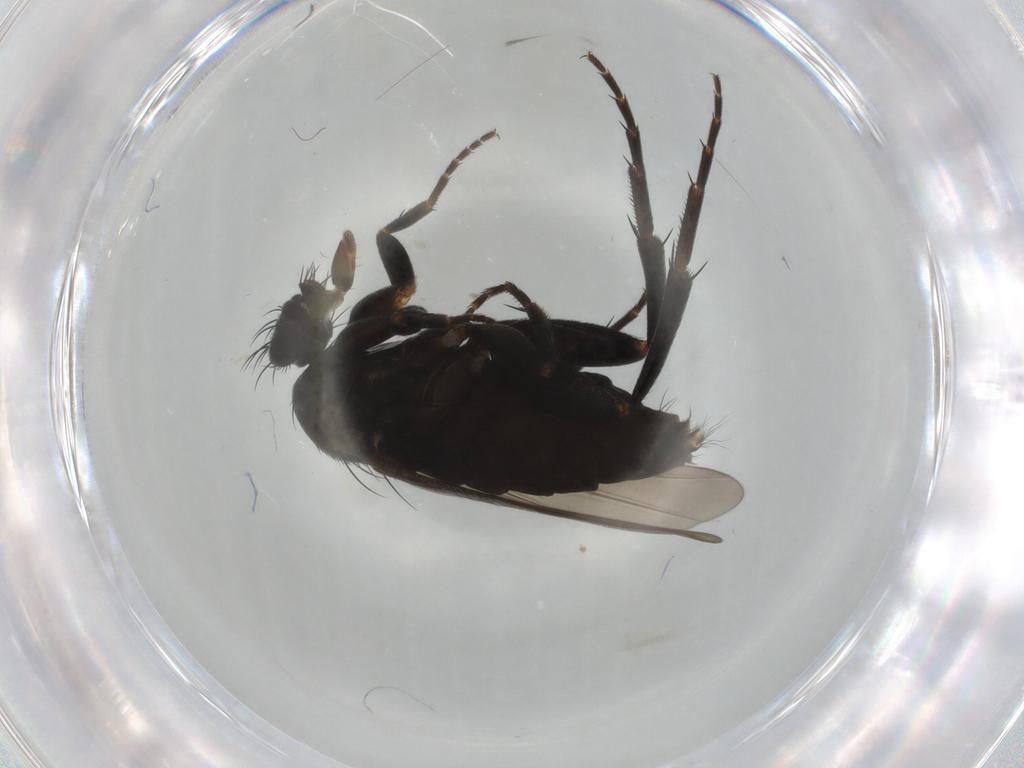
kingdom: Animalia
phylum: Arthropoda
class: Insecta
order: Diptera
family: Phoridae
